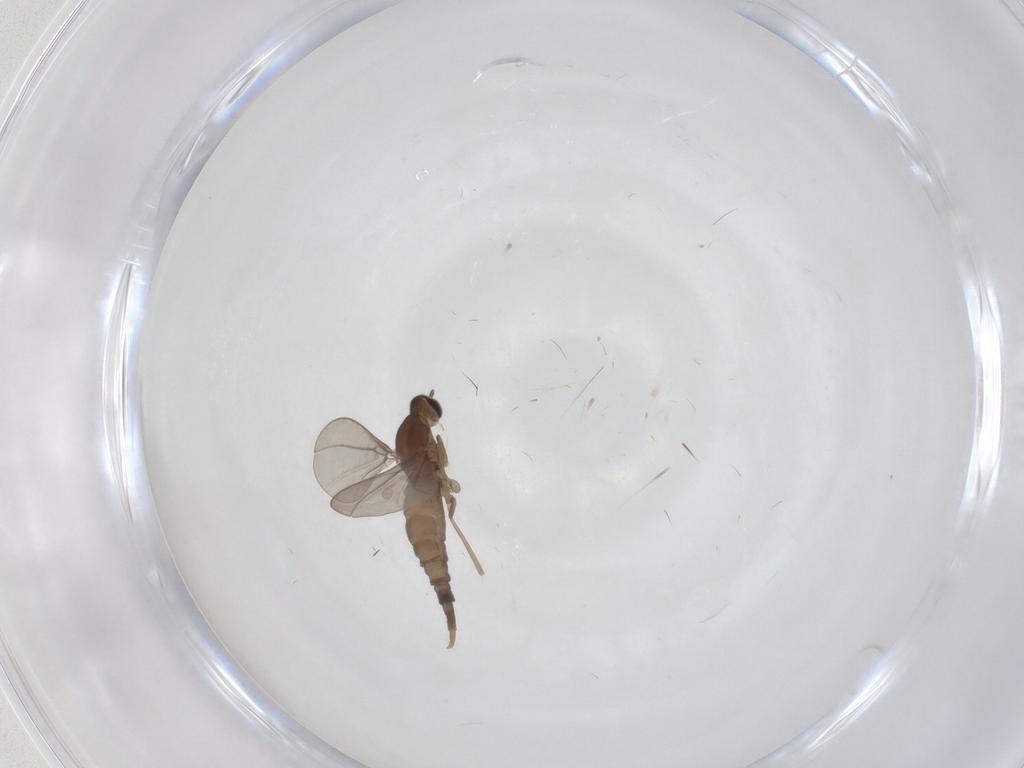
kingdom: Animalia
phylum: Arthropoda
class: Insecta
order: Diptera
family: Chironomidae
